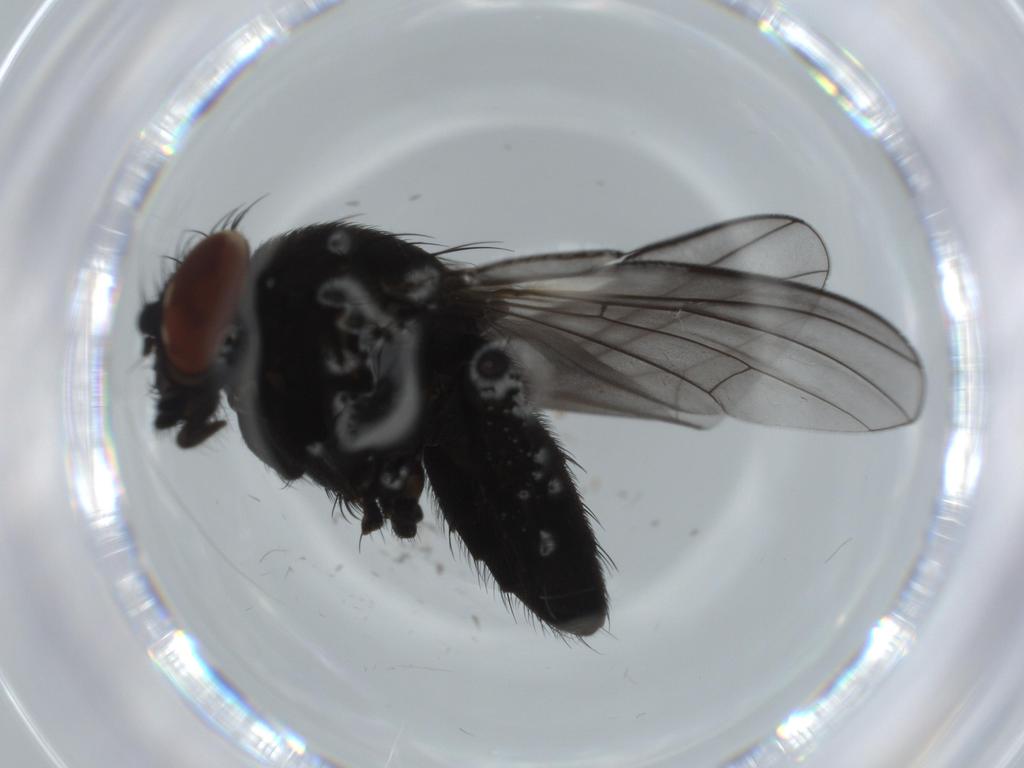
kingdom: Animalia
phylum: Arthropoda
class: Insecta
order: Diptera
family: Milichiidae
